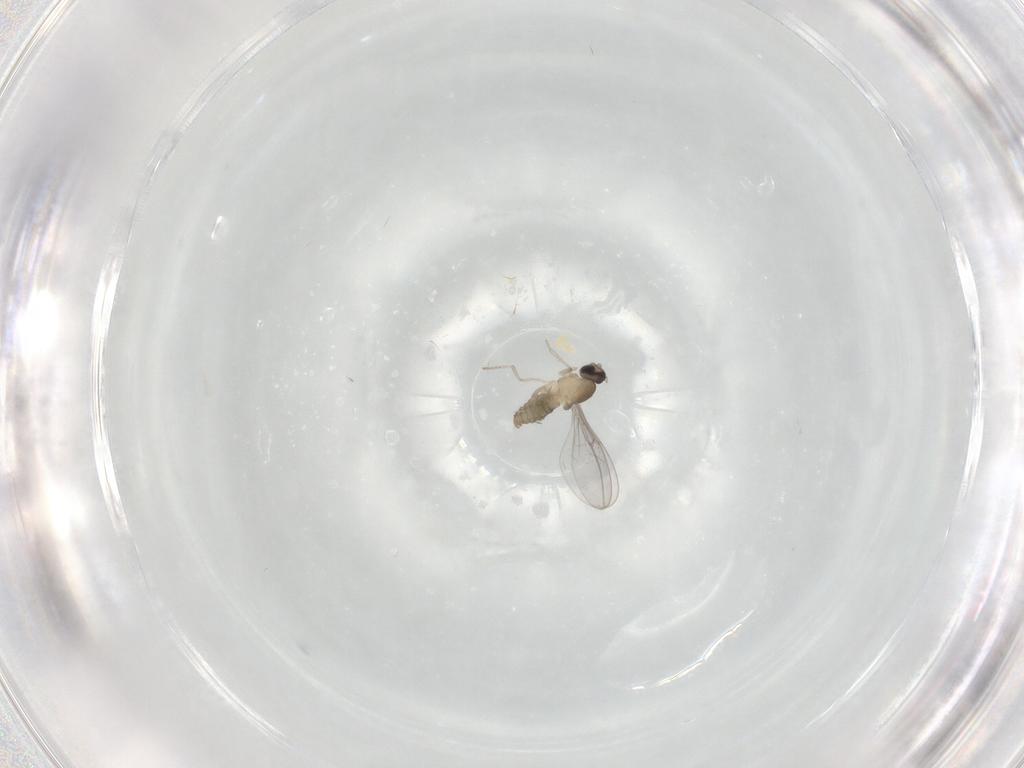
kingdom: Animalia
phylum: Arthropoda
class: Insecta
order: Diptera
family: Cecidomyiidae
